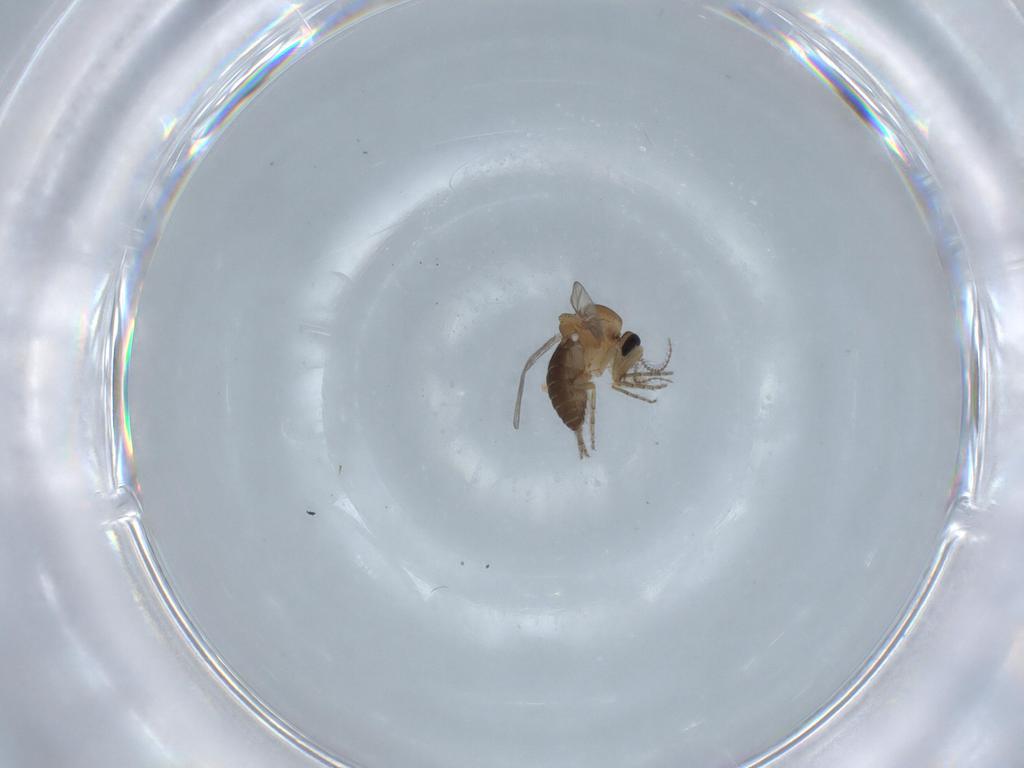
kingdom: Animalia
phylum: Arthropoda
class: Insecta
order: Diptera
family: Ceratopogonidae
